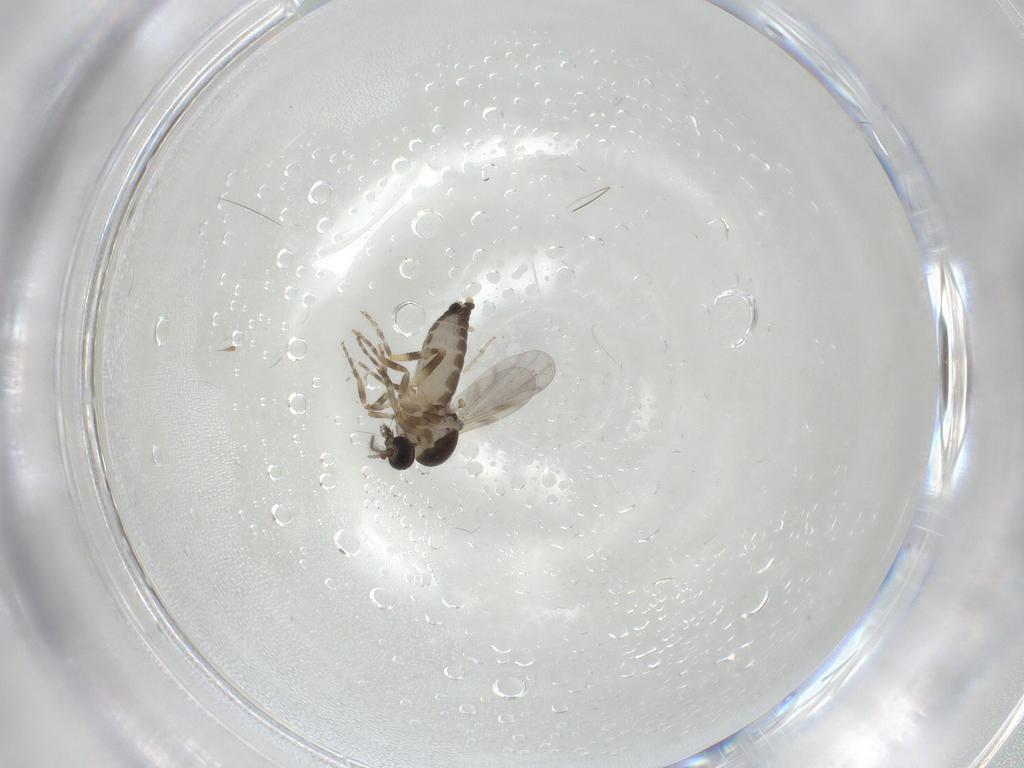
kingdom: Animalia
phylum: Arthropoda
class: Insecta
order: Diptera
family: Ceratopogonidae
